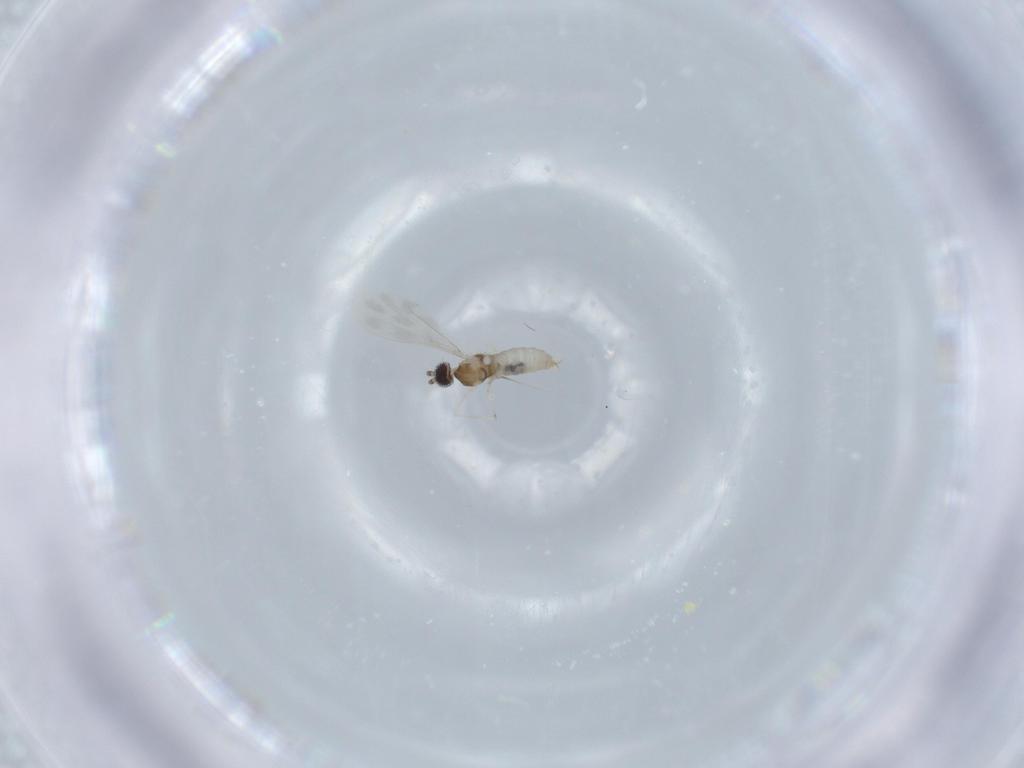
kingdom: Animalia
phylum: Arthropoda
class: Insecta
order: Diptera
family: Cecidomyiidae
